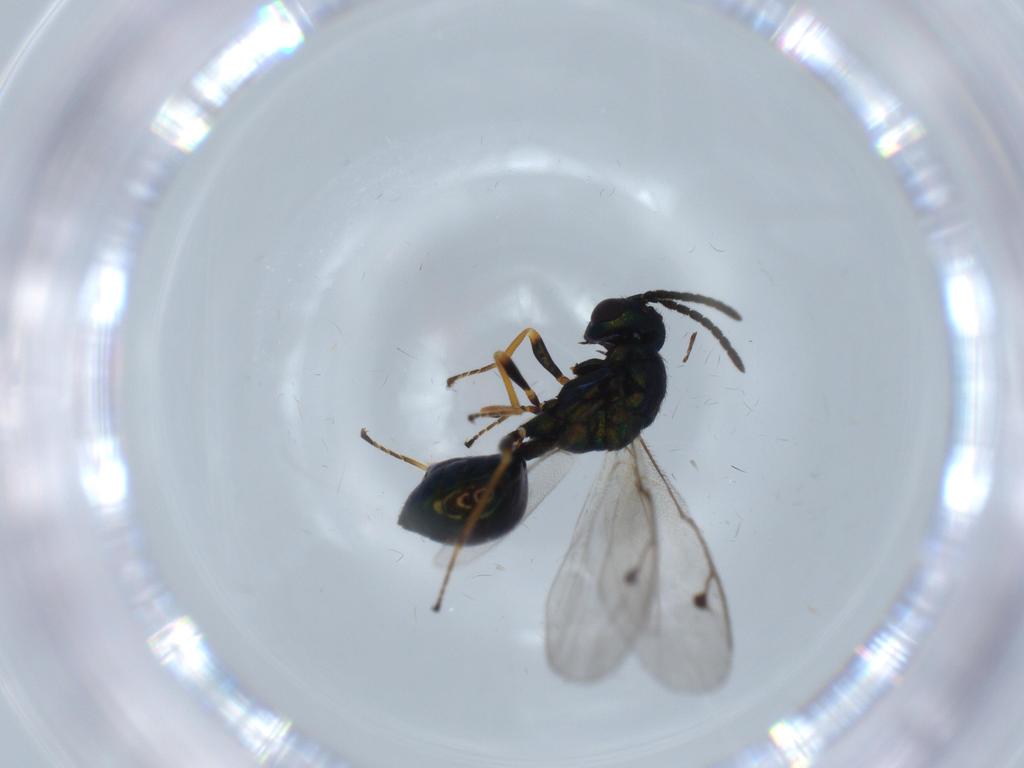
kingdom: Animalia
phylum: Arthropoda
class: Insecta
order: Hymenoptera
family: Pteromalidae
